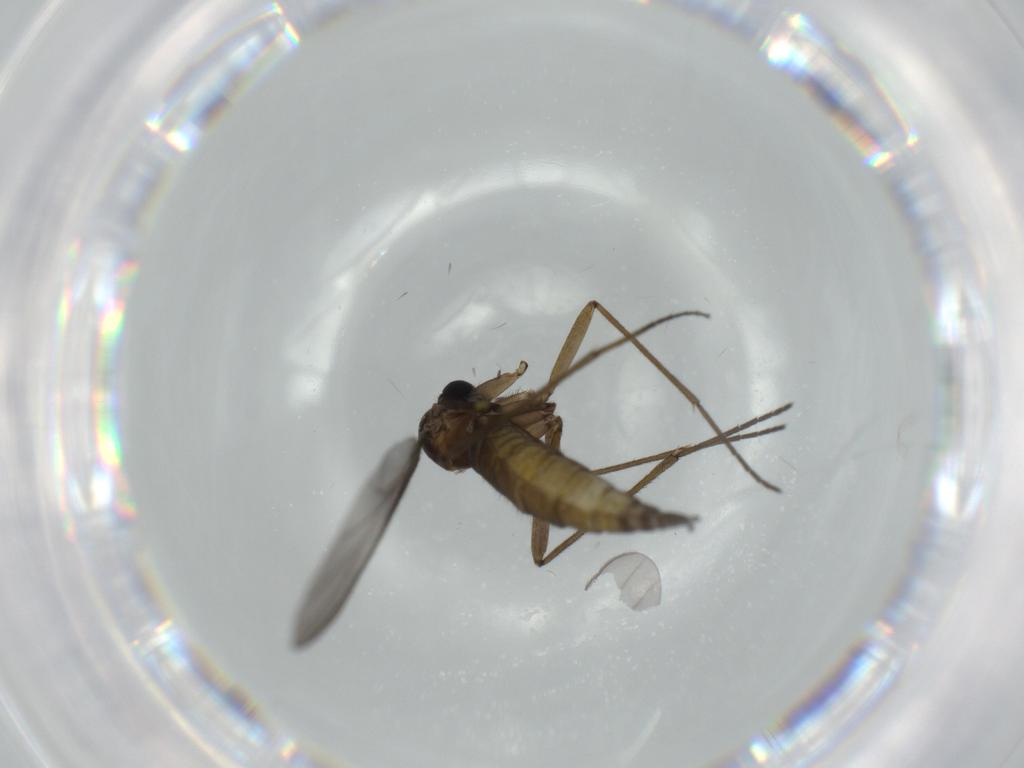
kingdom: Animalia
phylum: Arthropoda
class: Insecta
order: Diptera
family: Sciaridae
